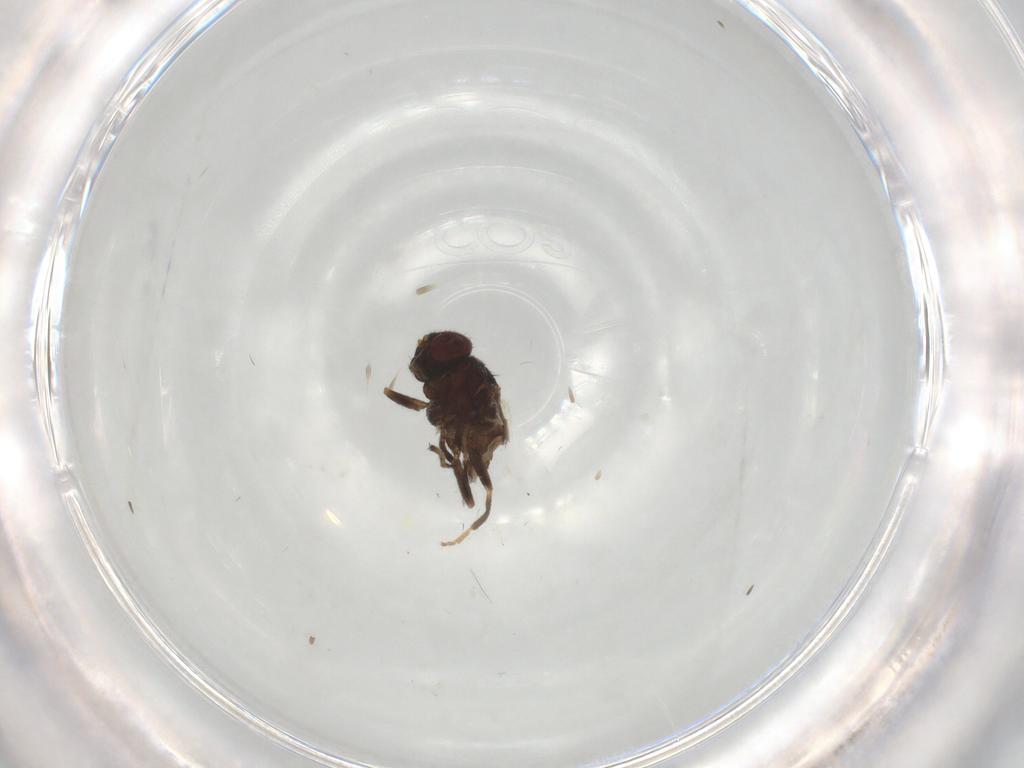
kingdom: Animalia
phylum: Arthropoda
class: Insecta
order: Diptera
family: Chloropidae
